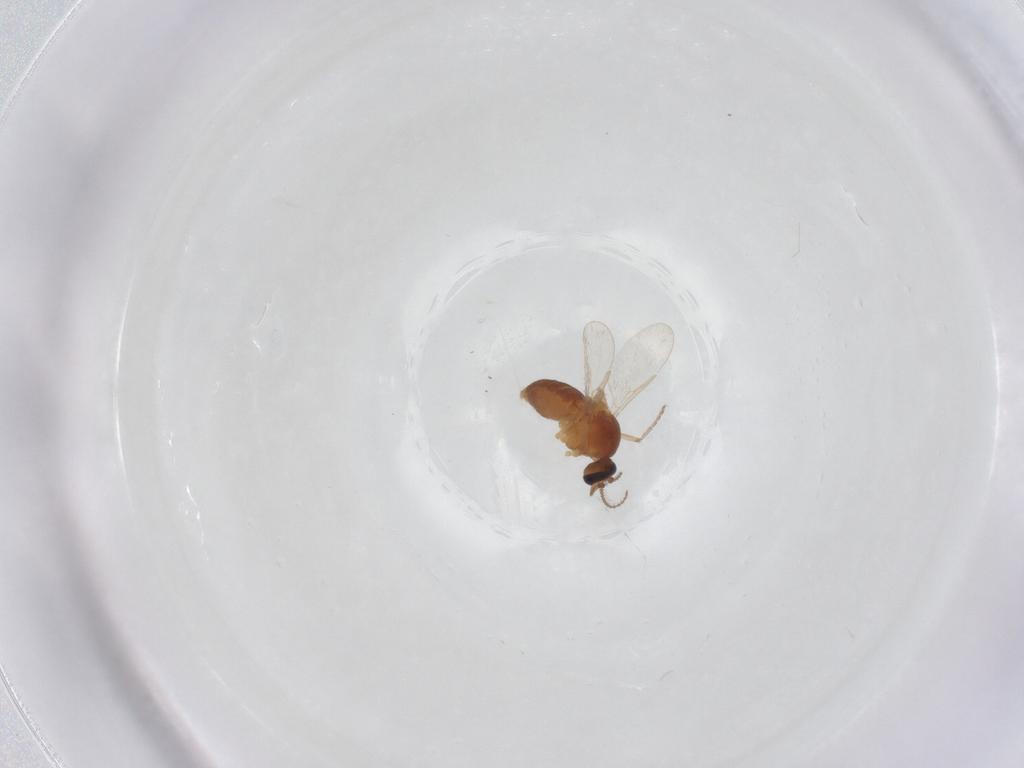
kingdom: Animalia
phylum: Arthropoda
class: Insecta
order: Diptera
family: Ceratopogonidae
